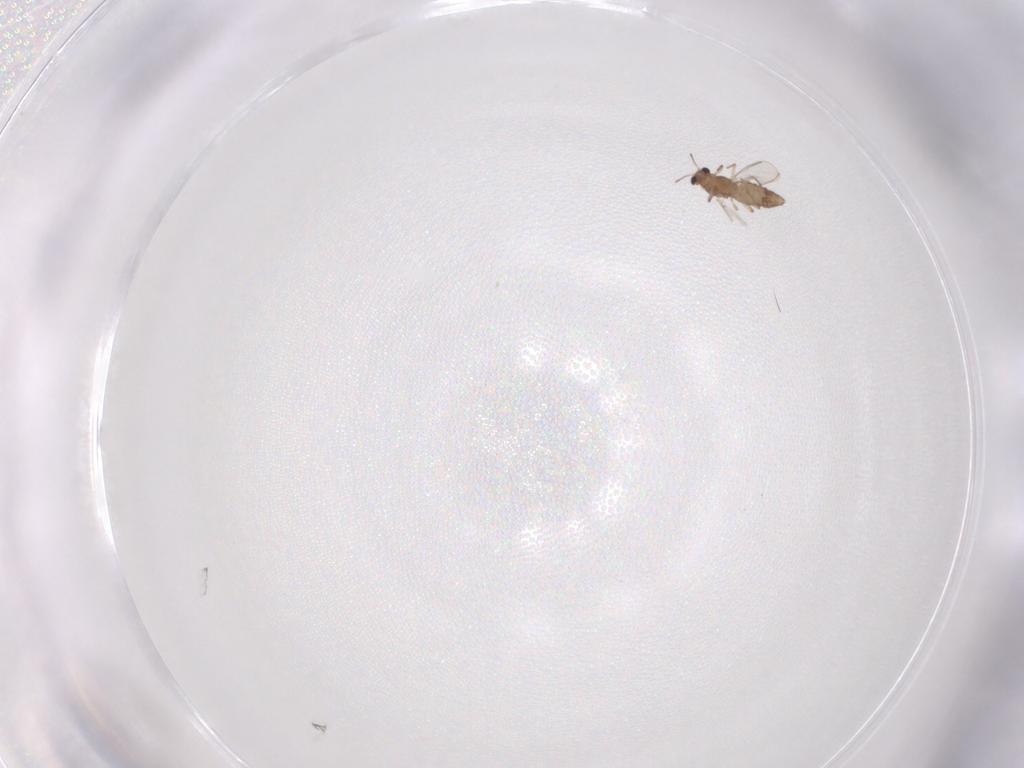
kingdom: Animalia
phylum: Arthropoda
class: Insecta
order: Diptera
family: Chironomidae
